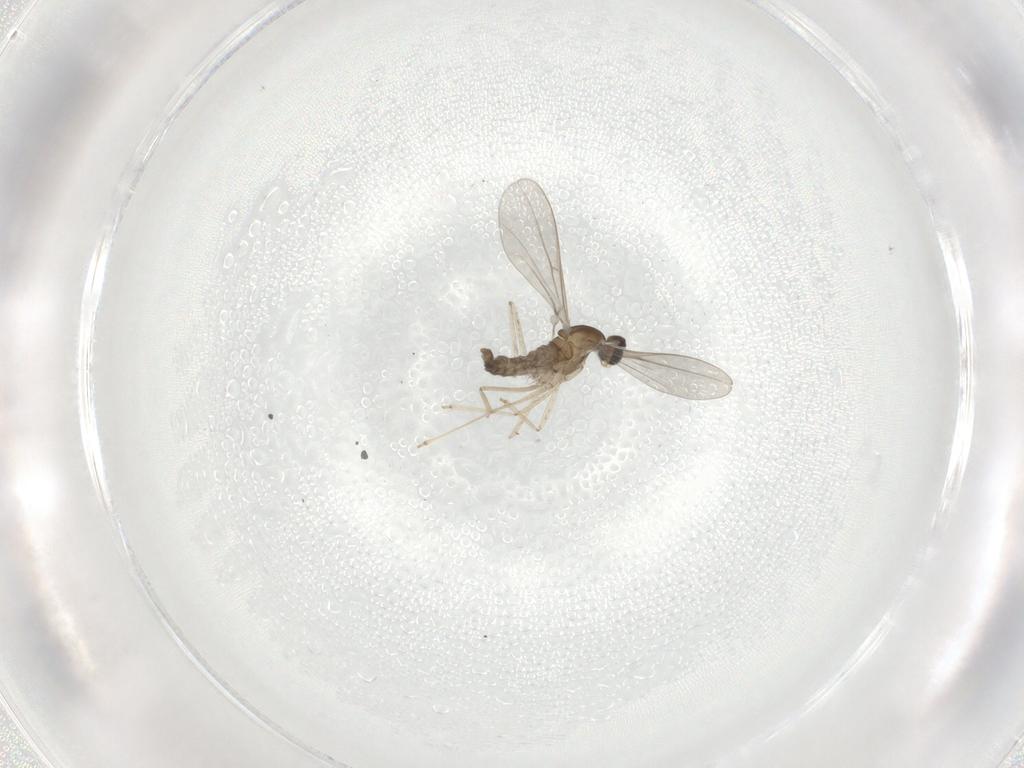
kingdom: Animalia
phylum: Arthropoda
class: Insecta
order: Diptera
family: Cecidomyiidae
